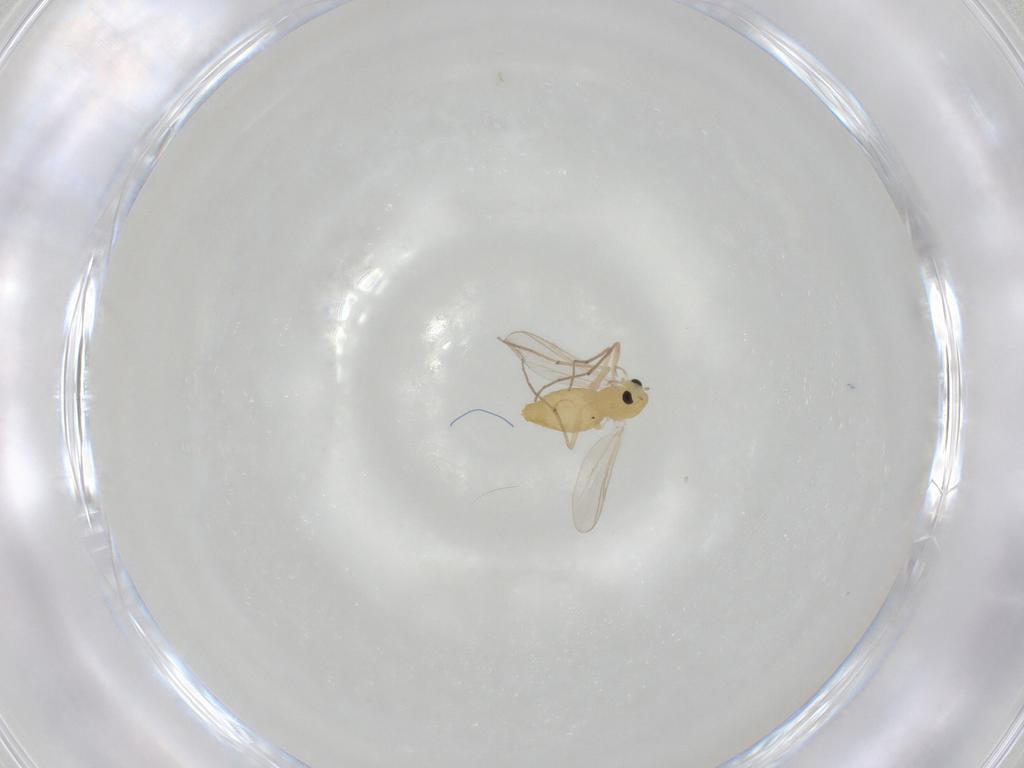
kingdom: Animalia
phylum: Arthropoda
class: Insecta
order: Diptera
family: Chironomidae
